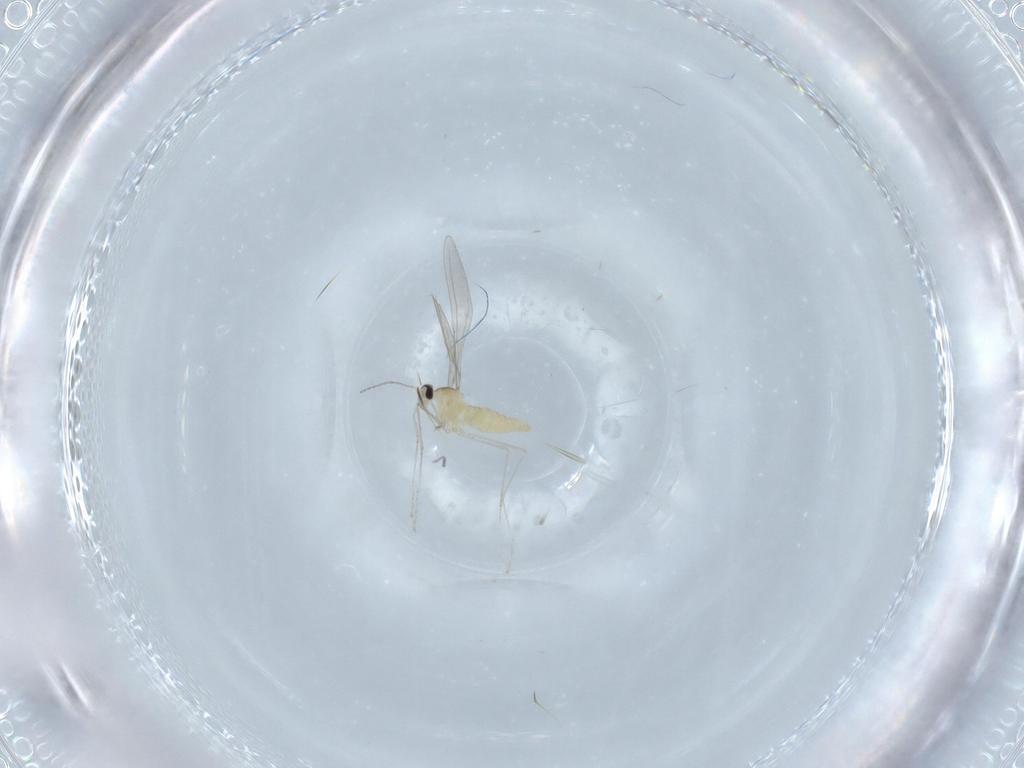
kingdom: Animalia
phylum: Arthropoda
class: Insecta
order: Diptera
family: Cecidomyiidae
